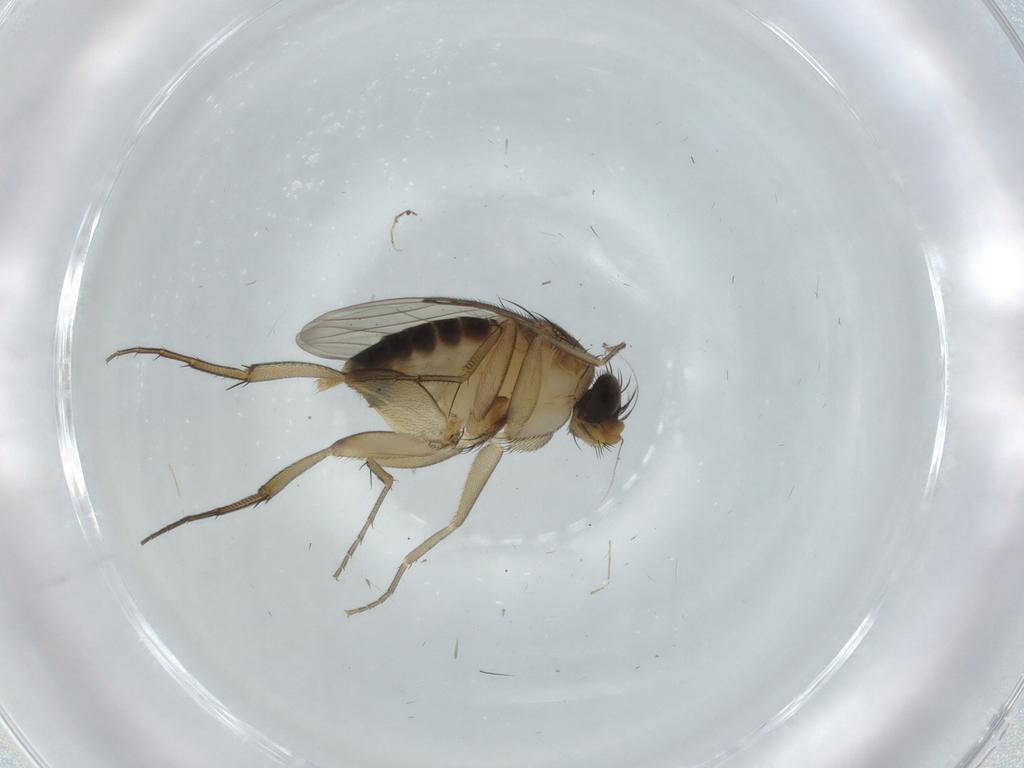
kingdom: Animalia
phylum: Arthropoda
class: Insecta
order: Diptera
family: Phoridae
